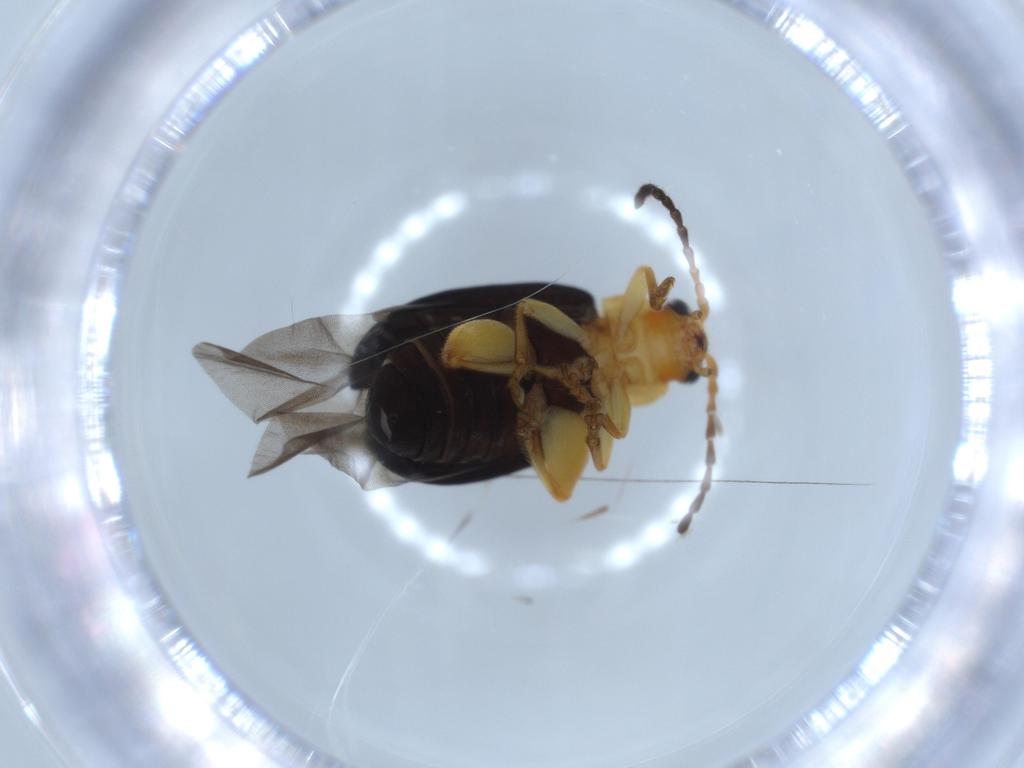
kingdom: Animalia
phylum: Arthropoda
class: Insecta
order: Coleoptera
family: Chrysomelidae
